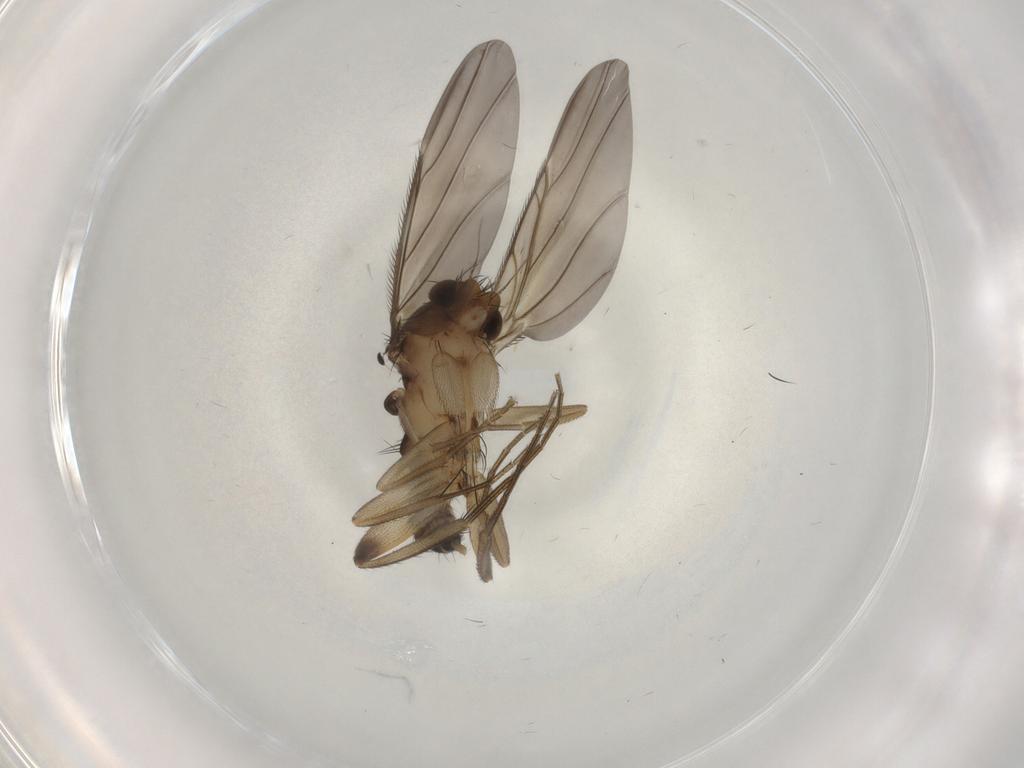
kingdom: Animalia
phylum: Arthropoda
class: Insecta
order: Diptera
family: Phoridae
